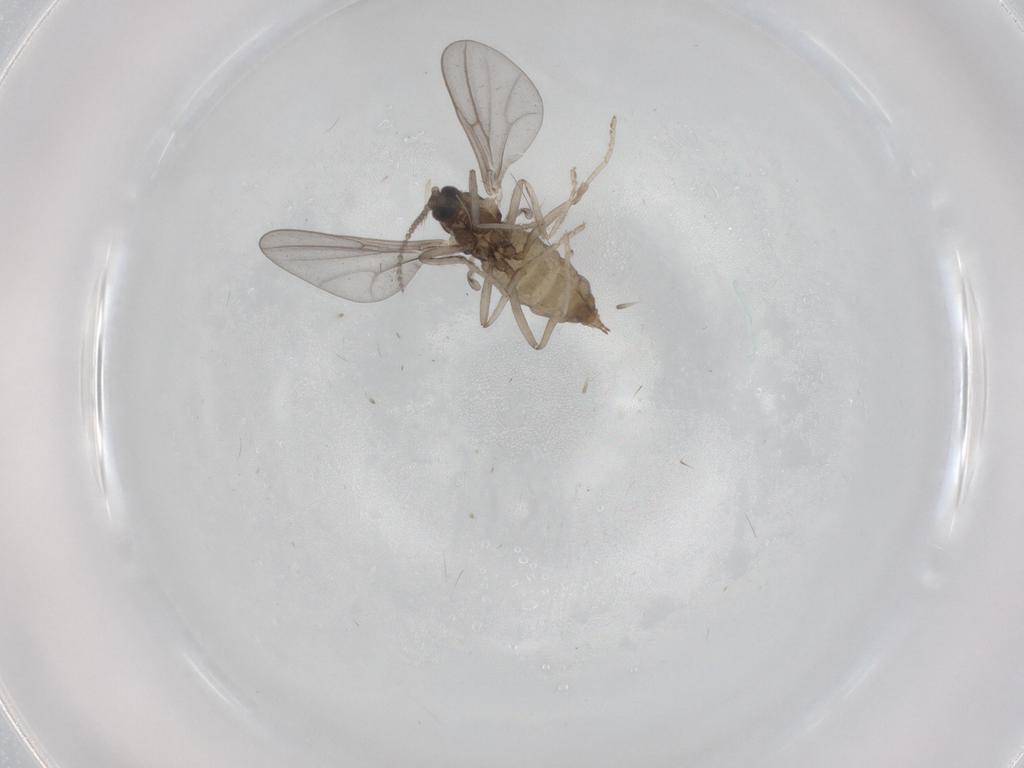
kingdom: Animalia
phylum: Arthropoda
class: Insecta
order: Diptera
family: Cecidomyiidae
